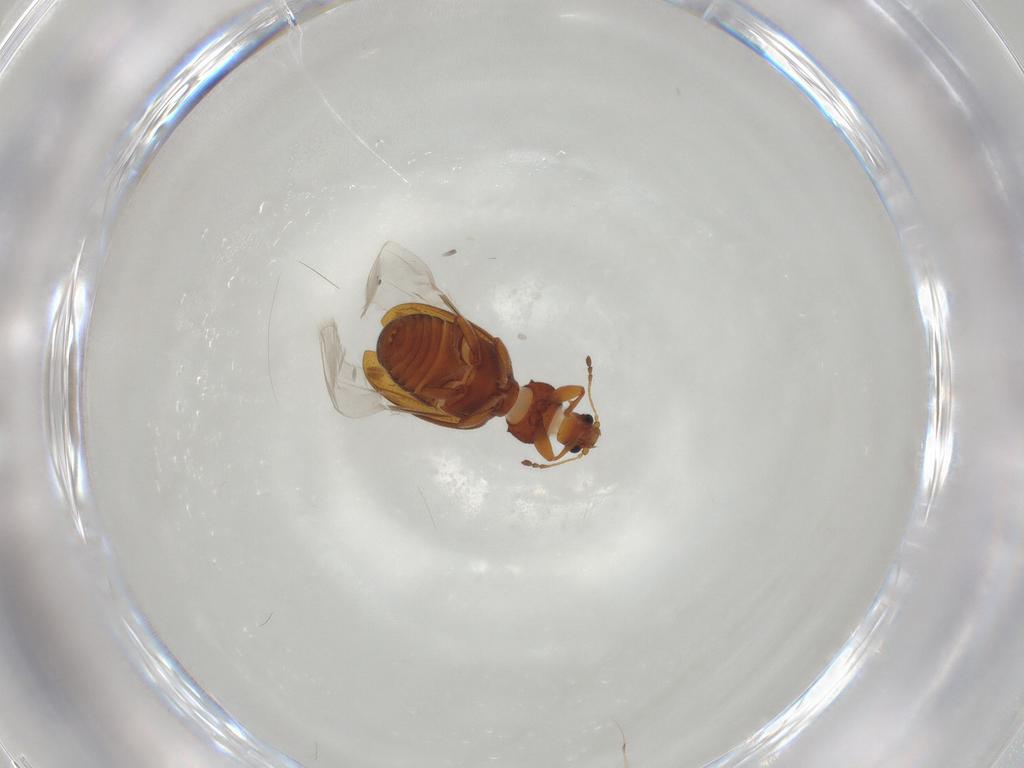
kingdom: Animalia
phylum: Arthropoda
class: Insecta
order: Coleoptera
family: Latridiidae
